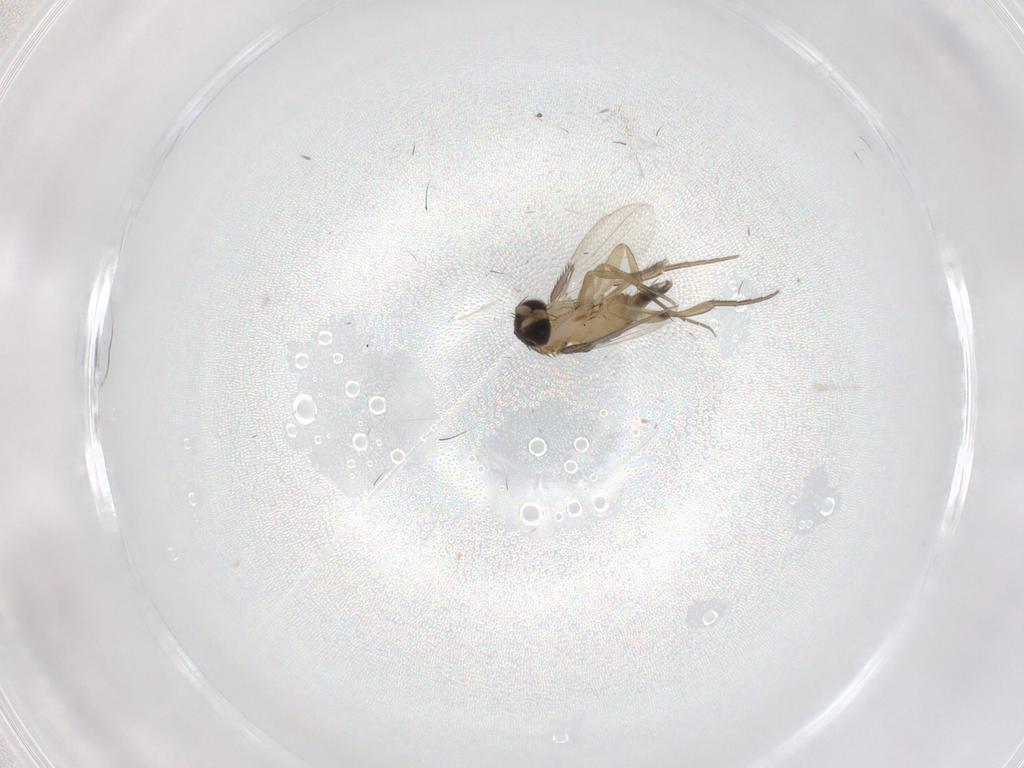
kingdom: Animalia
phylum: Arthropoda
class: Insecta
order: Diptera
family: Phoridae
